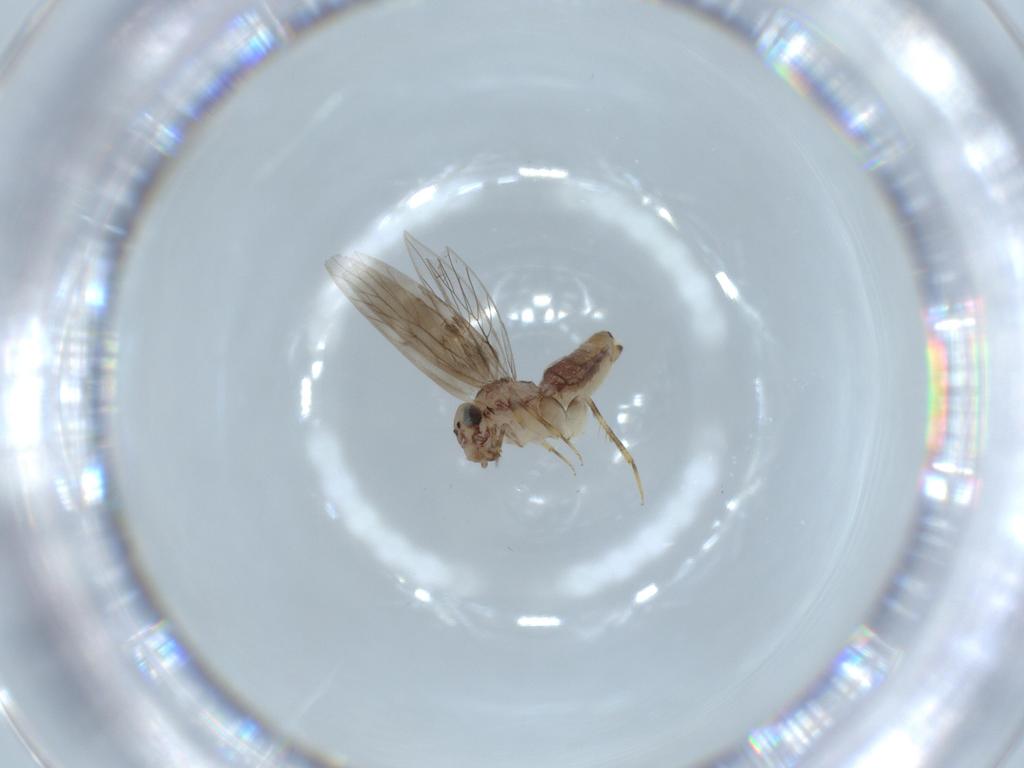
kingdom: Animalia
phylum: Arthropoda
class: Insecta
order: Psocodea
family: Lepidopsocidae
